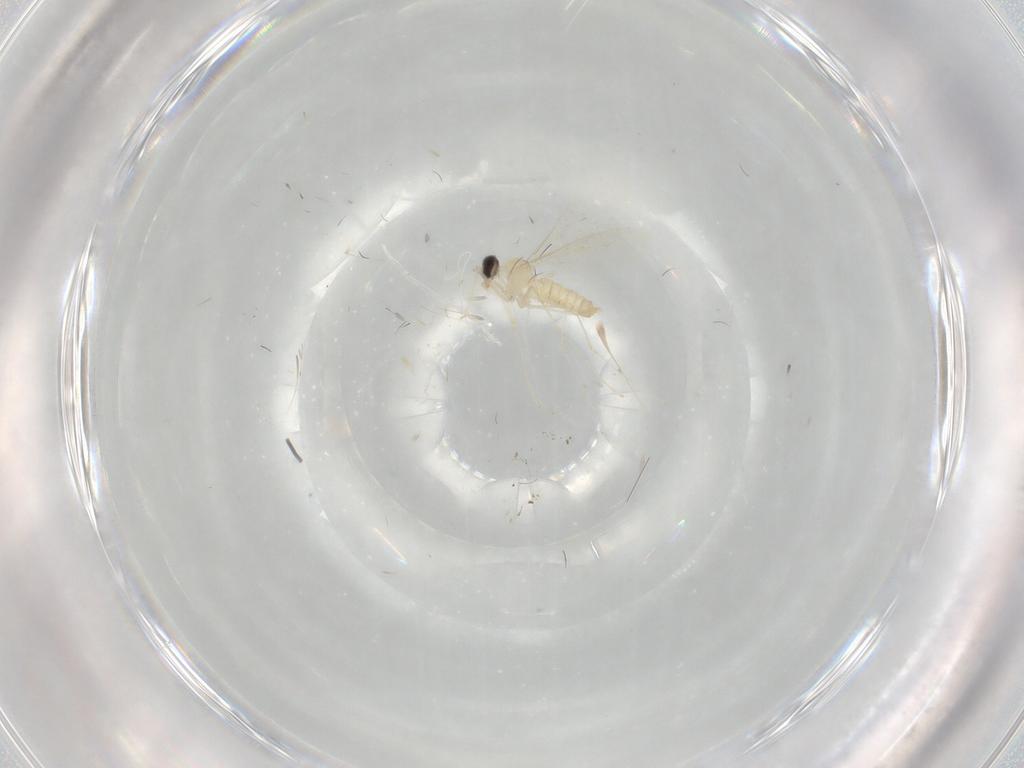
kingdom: Animalia
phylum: Arthropoda
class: Insecta
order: Diptera
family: Cecidomyiidae
